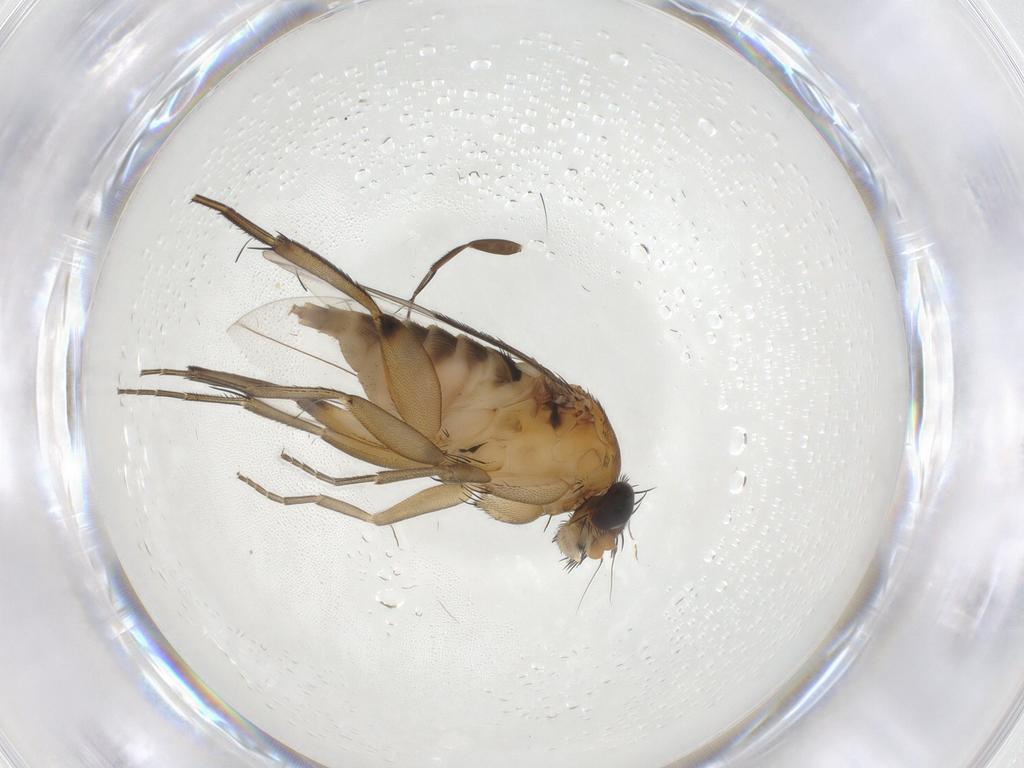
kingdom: Animalia
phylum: Arthropoda
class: Insecta
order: Diptera
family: Phoridae
